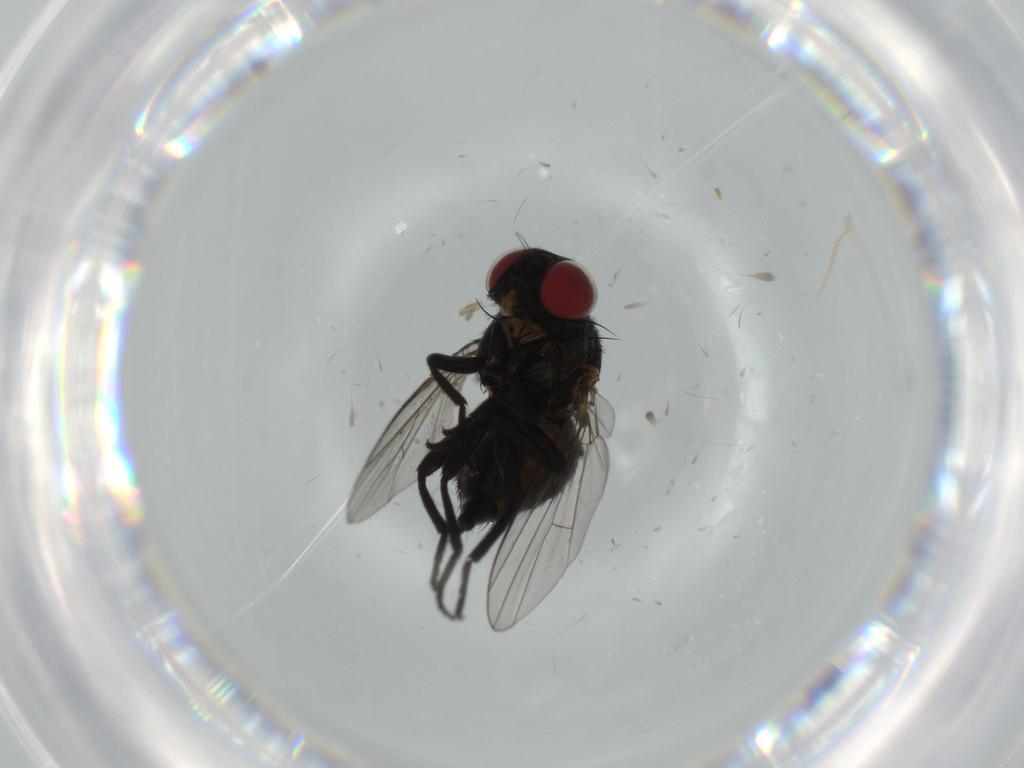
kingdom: Animalia
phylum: Arthropoda
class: Insecta
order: Diptera
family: Agromyzidae
